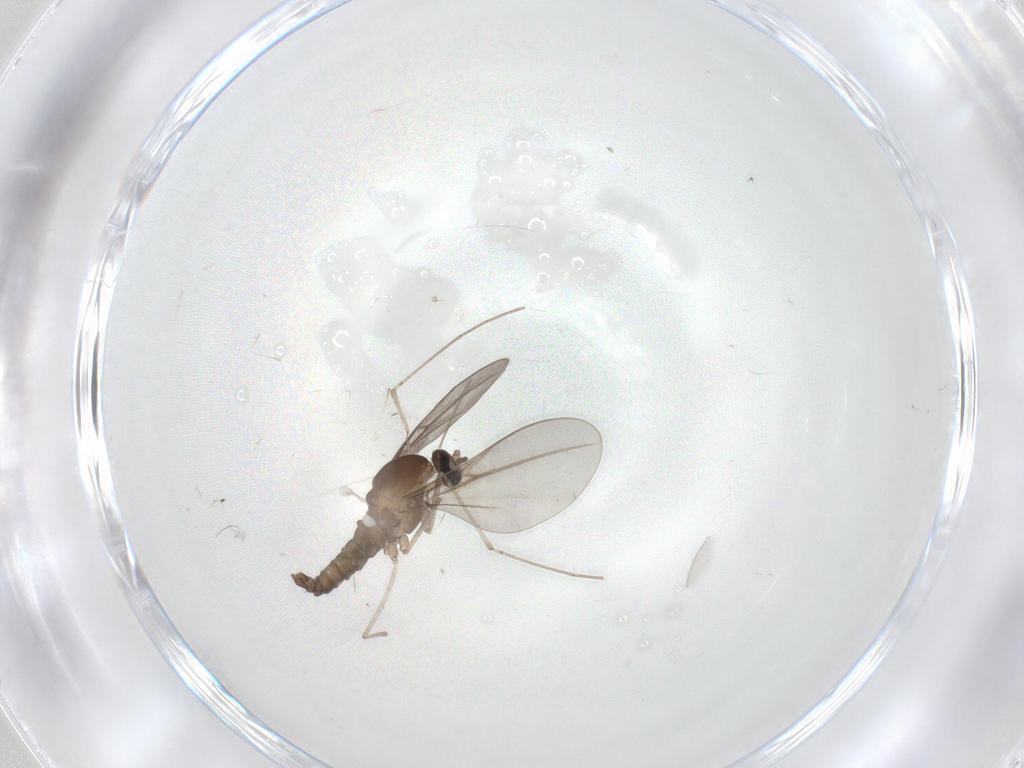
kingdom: Animalia
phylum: Arthropoda
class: Insecta
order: Diptera
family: Cecidomyiidae
